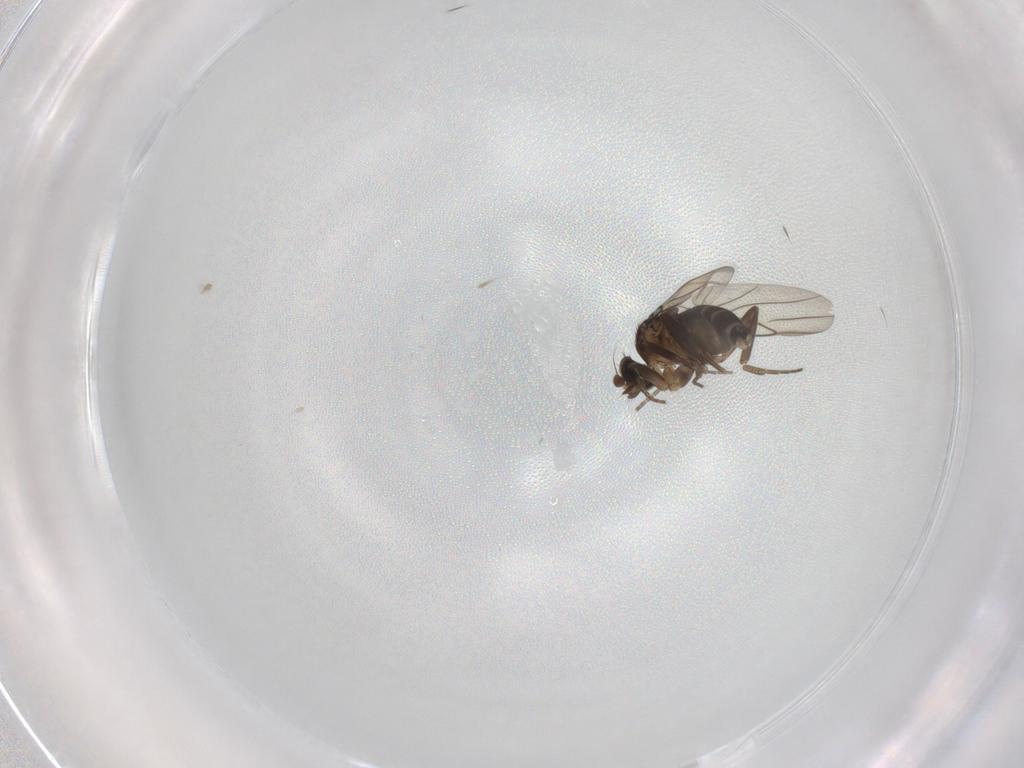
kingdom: Animalia
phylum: Arthropoda
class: Insecta
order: Diptera
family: Phoridae
